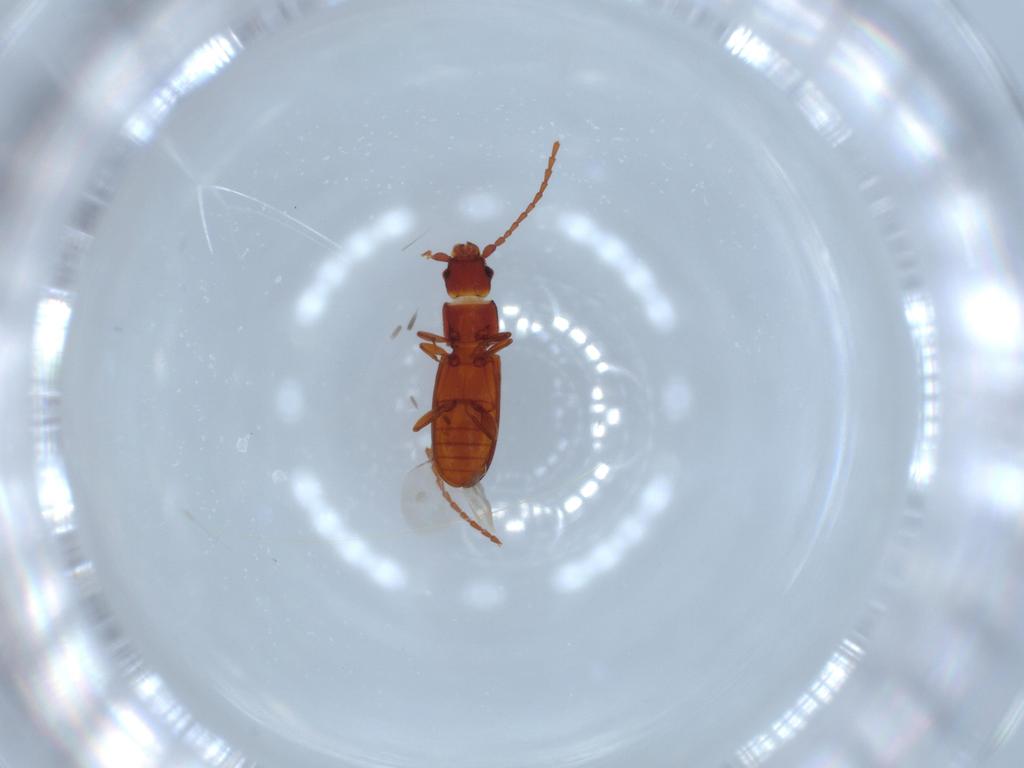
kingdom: Animalia
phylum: Arthropoda
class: Insecta
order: Coleoptera
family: Laemophloeidae
